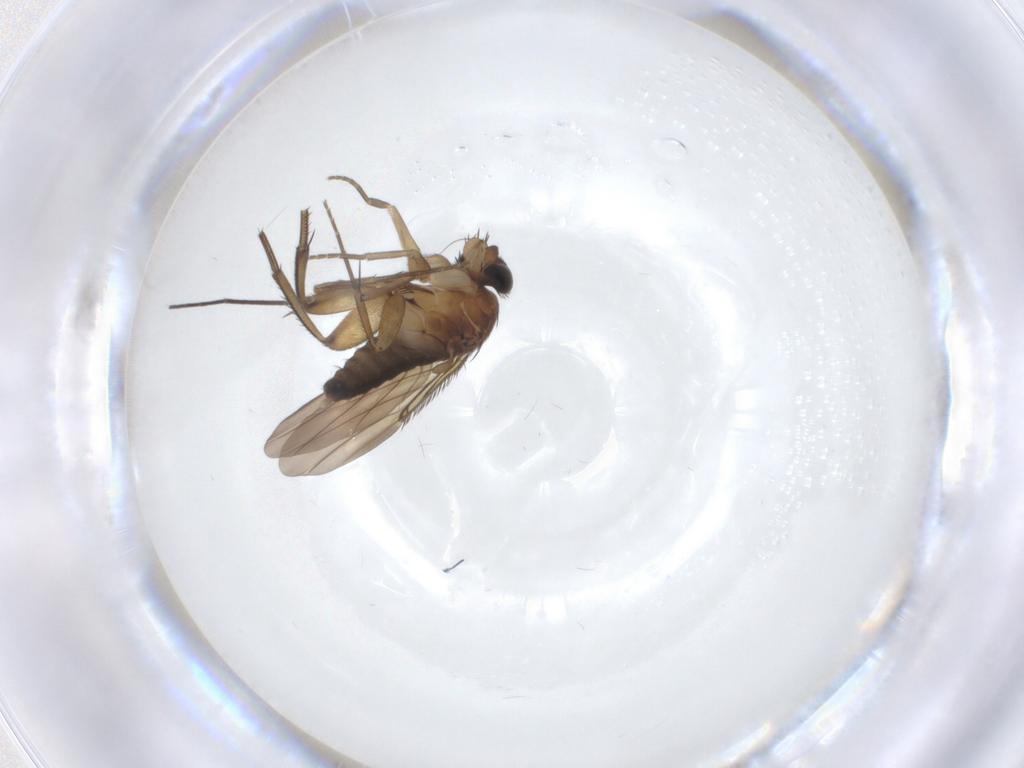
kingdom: Animalia
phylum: Arthropoda
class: Insecta
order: Diptera
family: Phoridae
